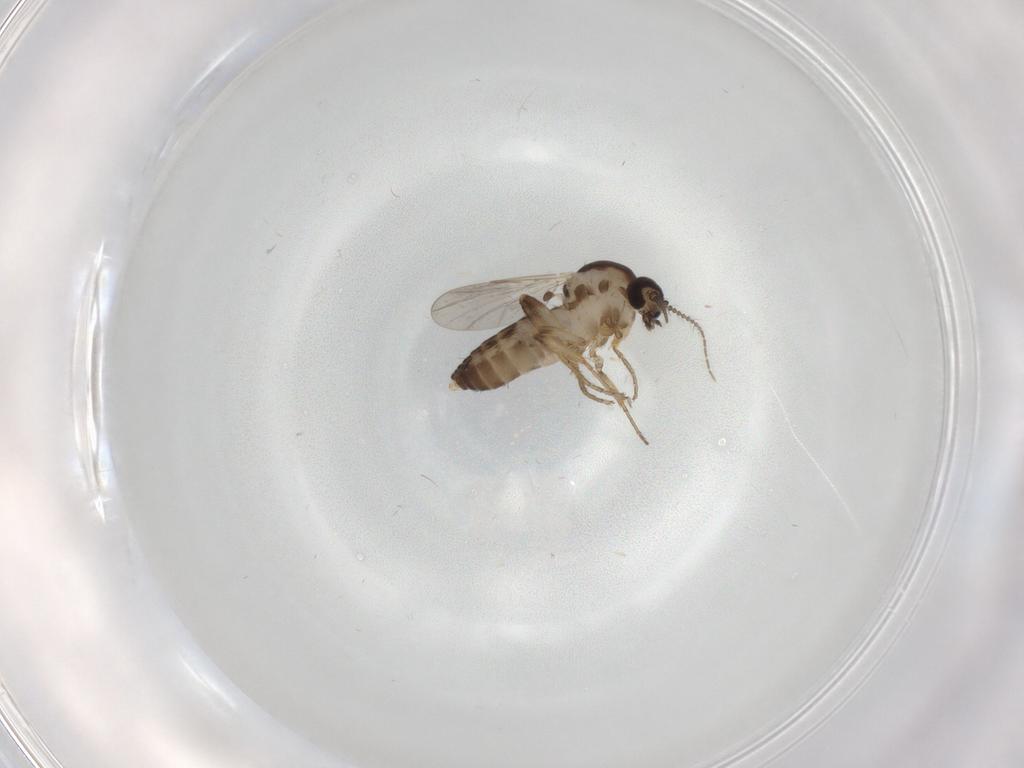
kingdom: Animalia
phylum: Arthropoda
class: Insecta
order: Diptera
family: Ceratopogonidae
